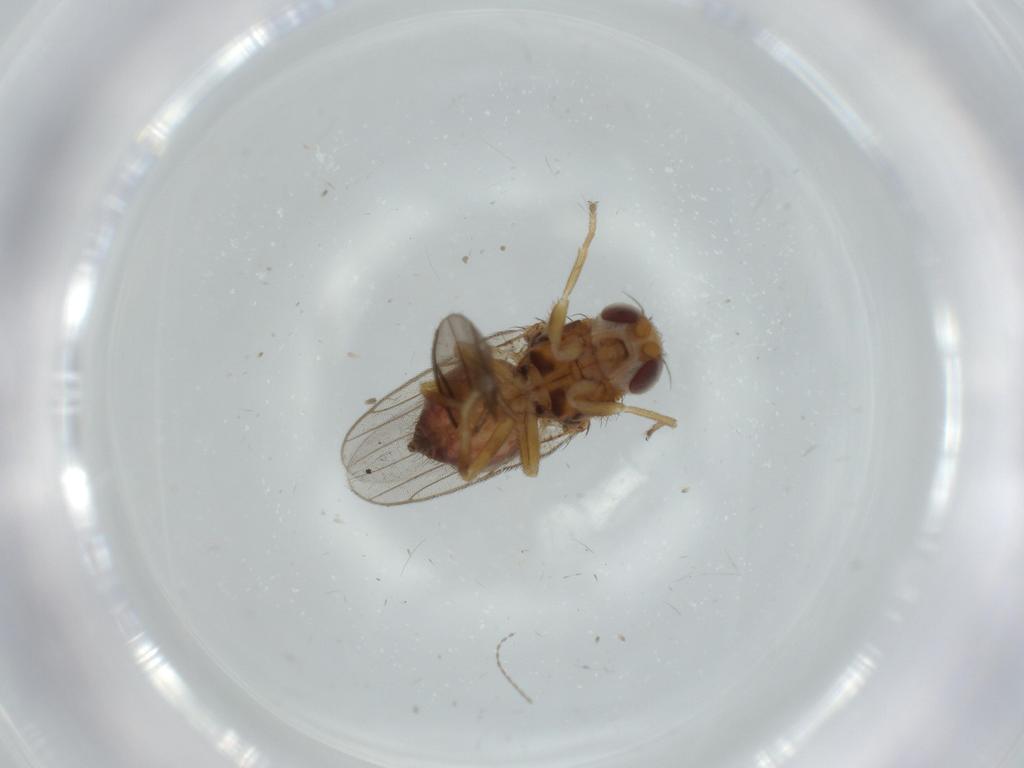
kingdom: Animalia
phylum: Arthropoda
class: Insecta
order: Diptera
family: Chloropidae
